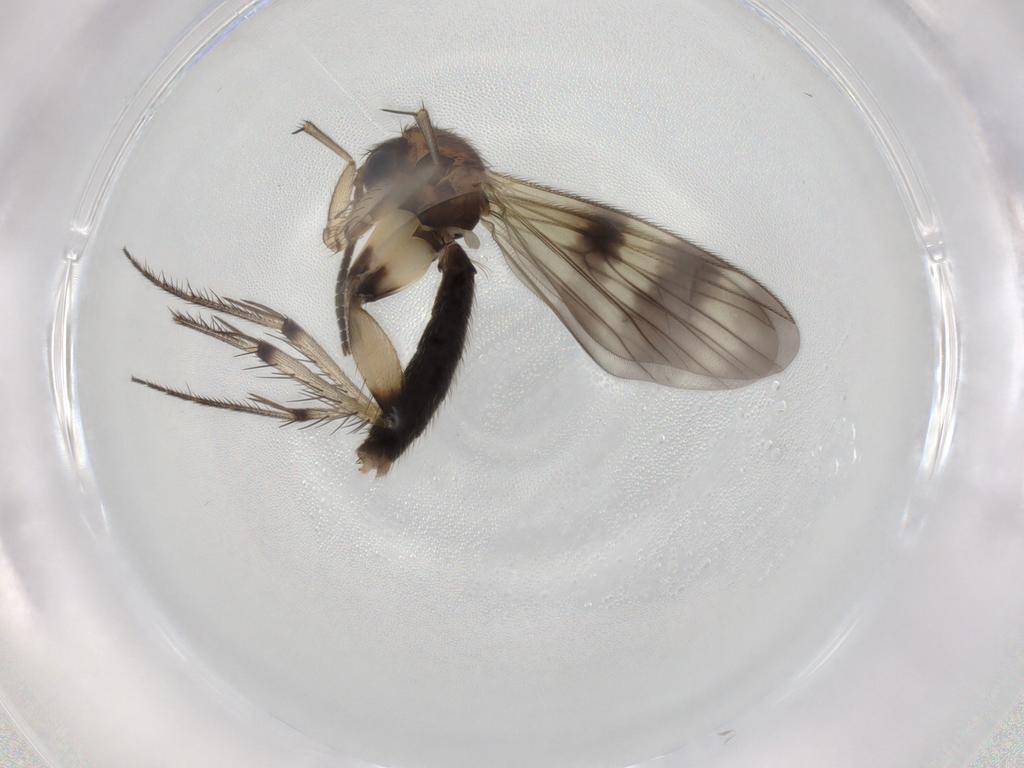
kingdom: Animalia
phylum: Arthropoda
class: Insecta
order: Diptera
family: Mycetophilidae
